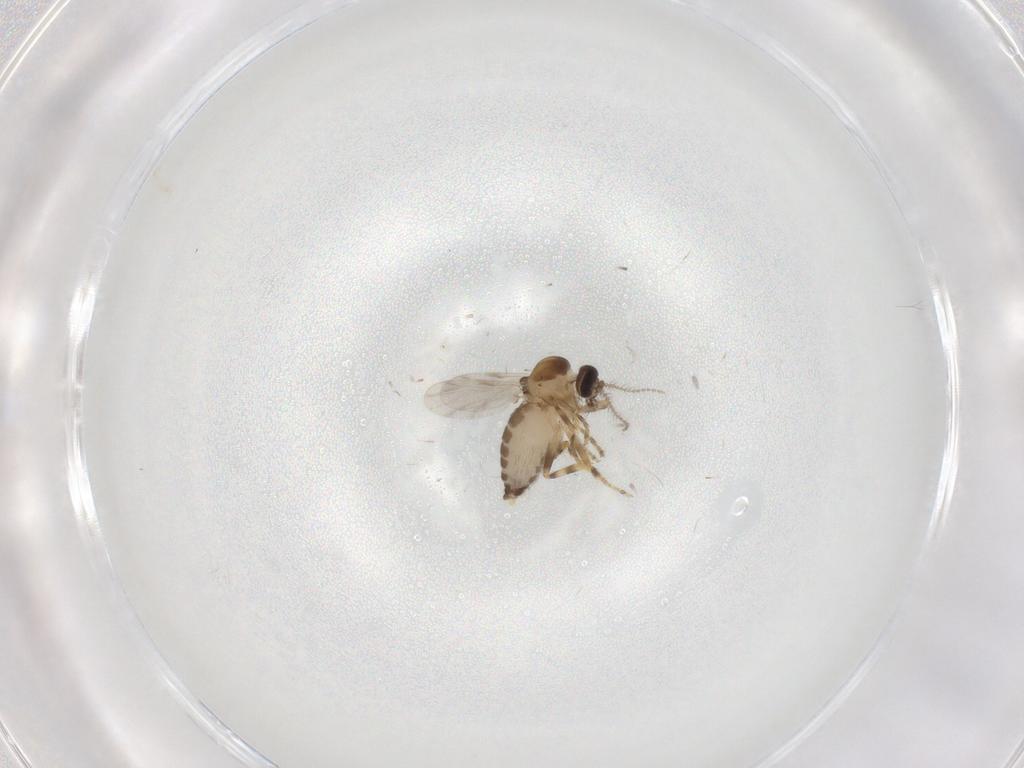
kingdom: Animalia
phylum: Arthropoda
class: Insecta
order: Diptera
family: Ceratopogonidae
